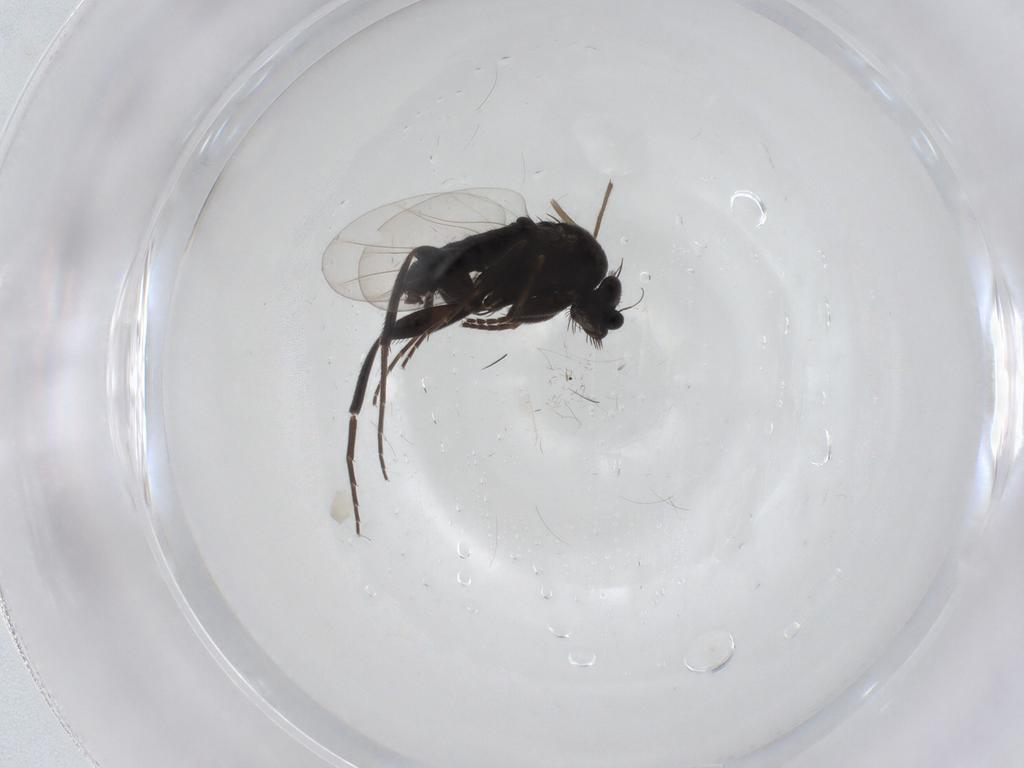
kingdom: Animalia
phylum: Arthropoda
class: Insecta
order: Diptera
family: Phoridae
